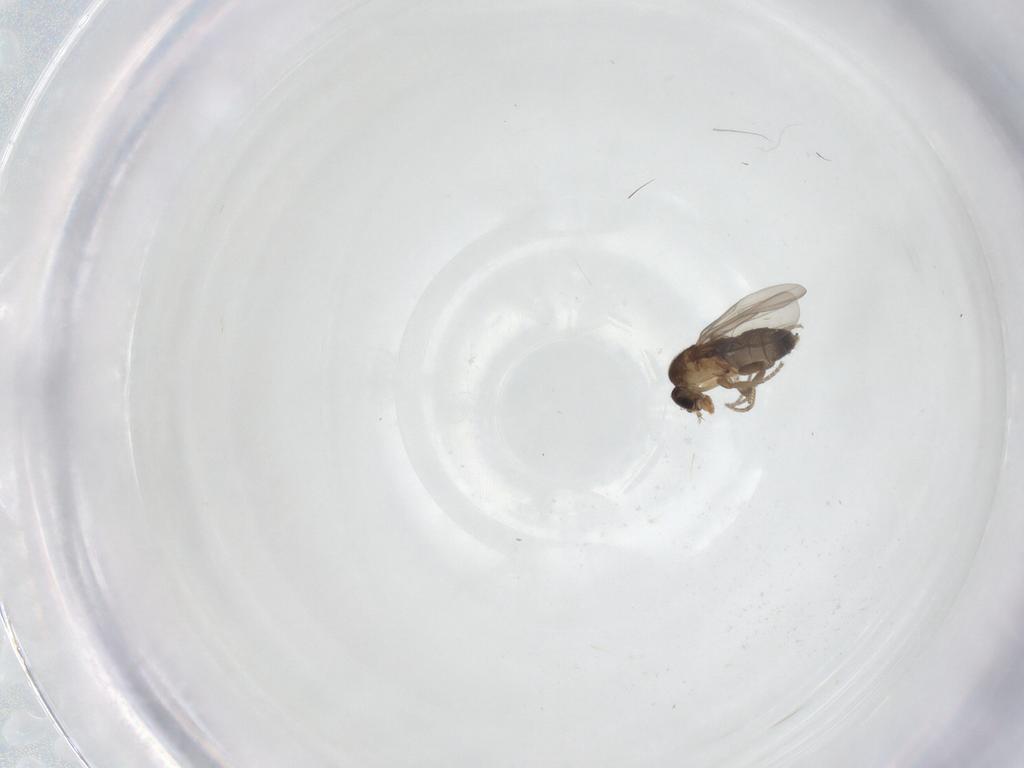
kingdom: Animalia
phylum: Arthropoda
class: Insecta
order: Diptera
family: Phoridae
